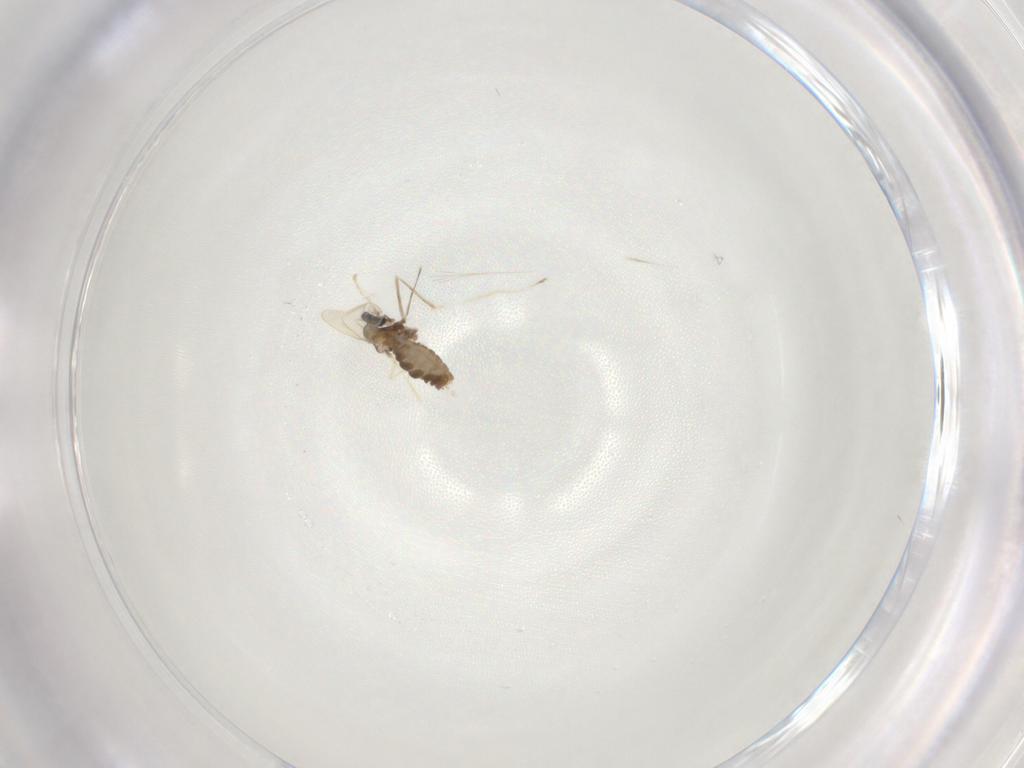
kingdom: Animalia
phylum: Arthropoda
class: Insecta
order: Diptera
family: Cecidomyiidae
